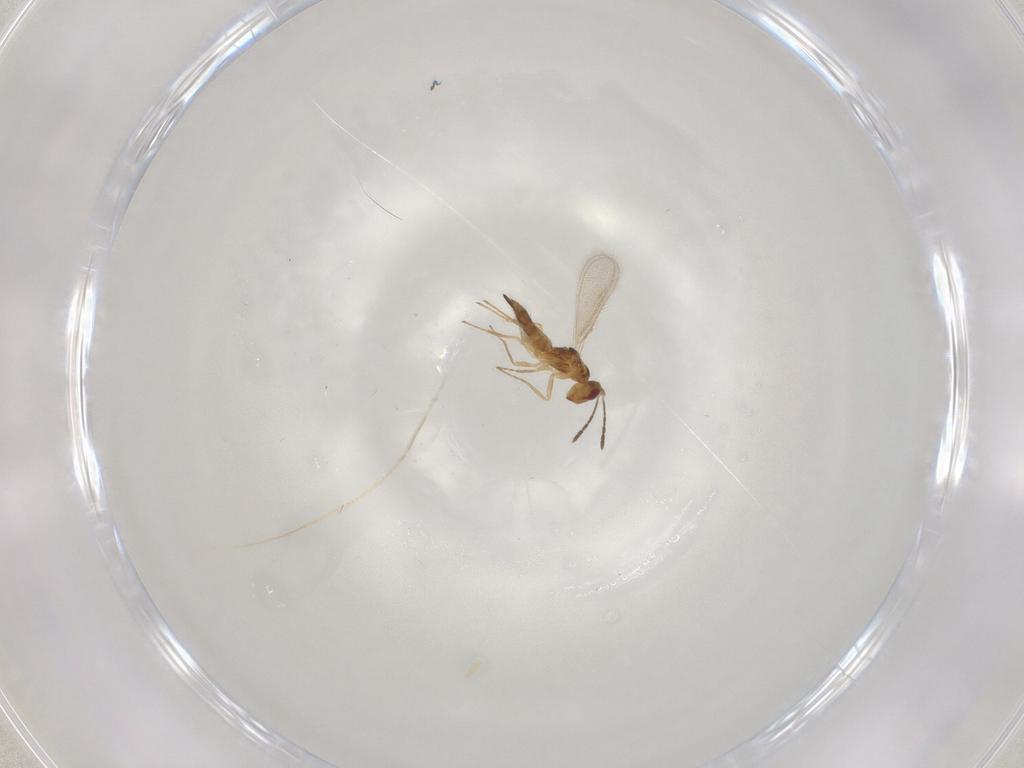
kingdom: Animalia
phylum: Arthropoda
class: Insecta
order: Hymenoptera
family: Eulophidae
